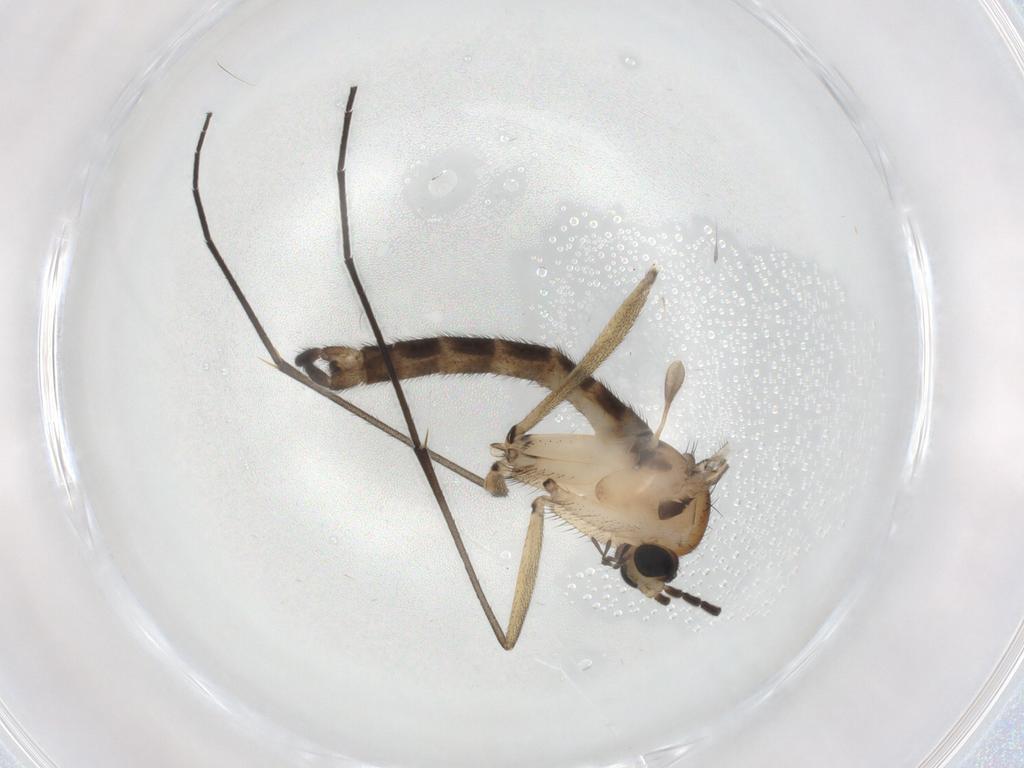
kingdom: Animalia
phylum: Arthropoda
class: Insecta
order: Diptera
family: Sciaridae
